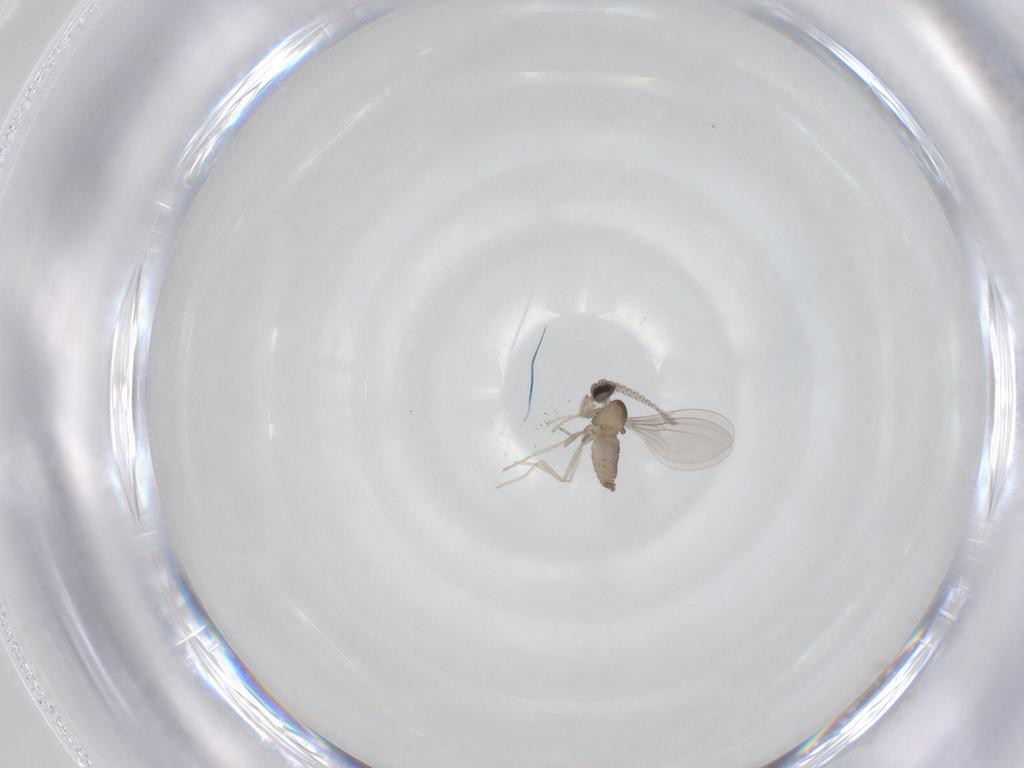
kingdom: Animalia
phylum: Arthropoda
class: Insecta
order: Diptera
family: Cecidomyiidae
